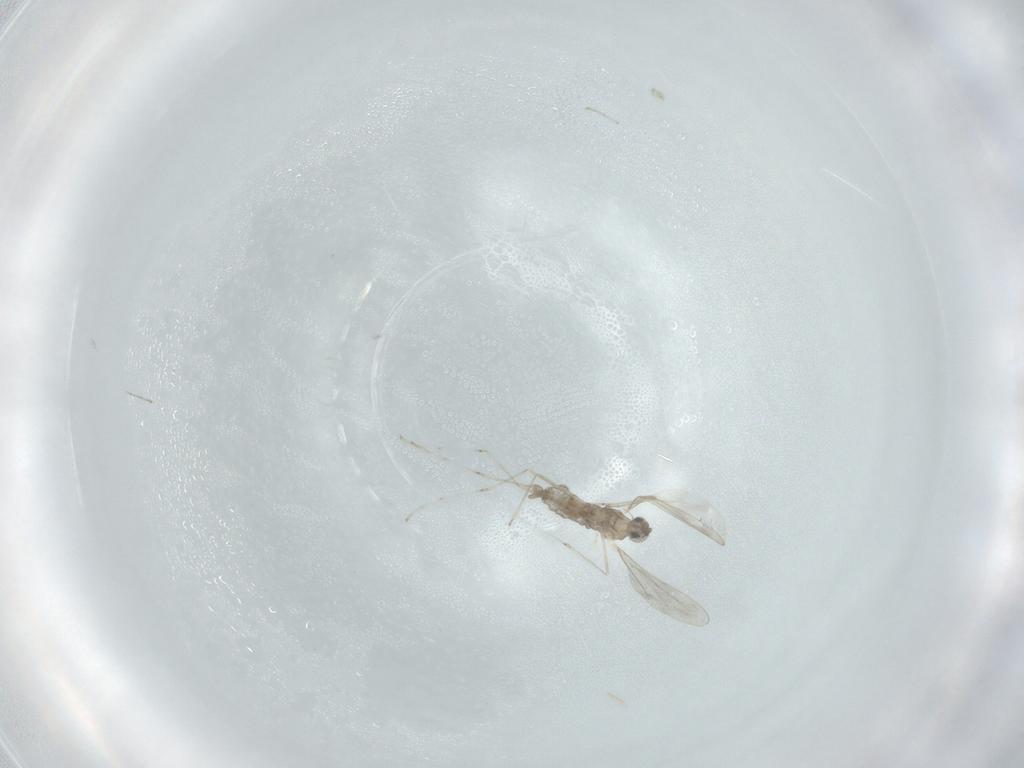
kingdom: Animalia
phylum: Arthropoda
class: Insecta
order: Diptera
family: Cecidomyiidae
